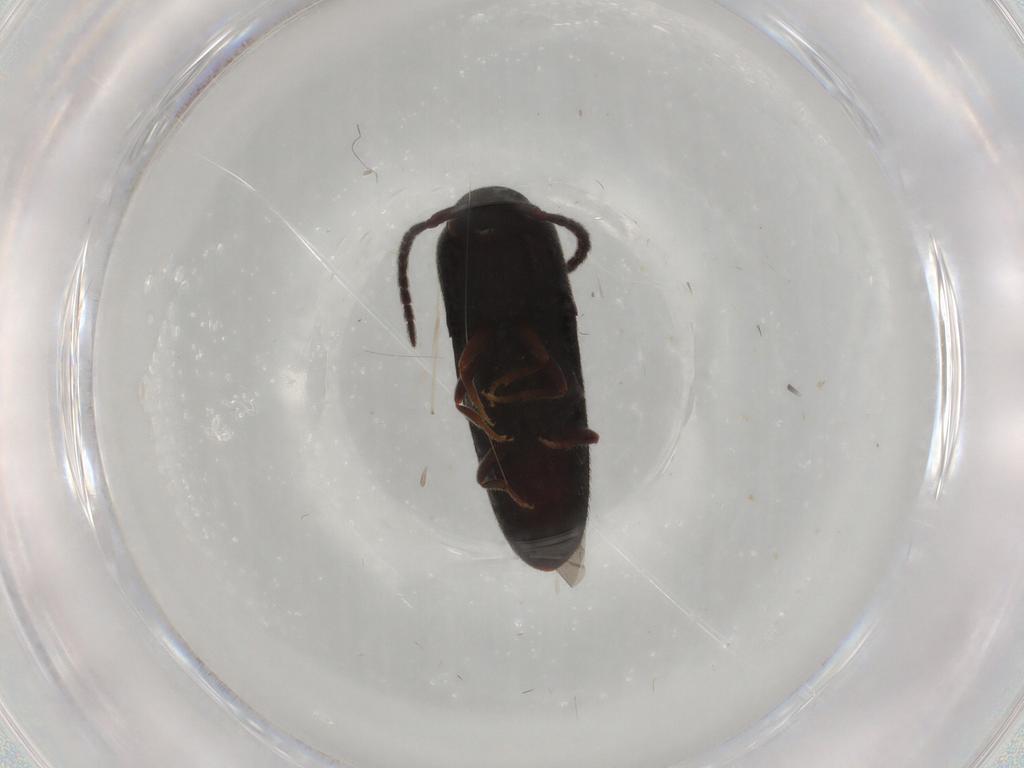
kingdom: Animalia
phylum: Arthropoda
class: Insecta
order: Coleoptera
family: Eucnemidae
